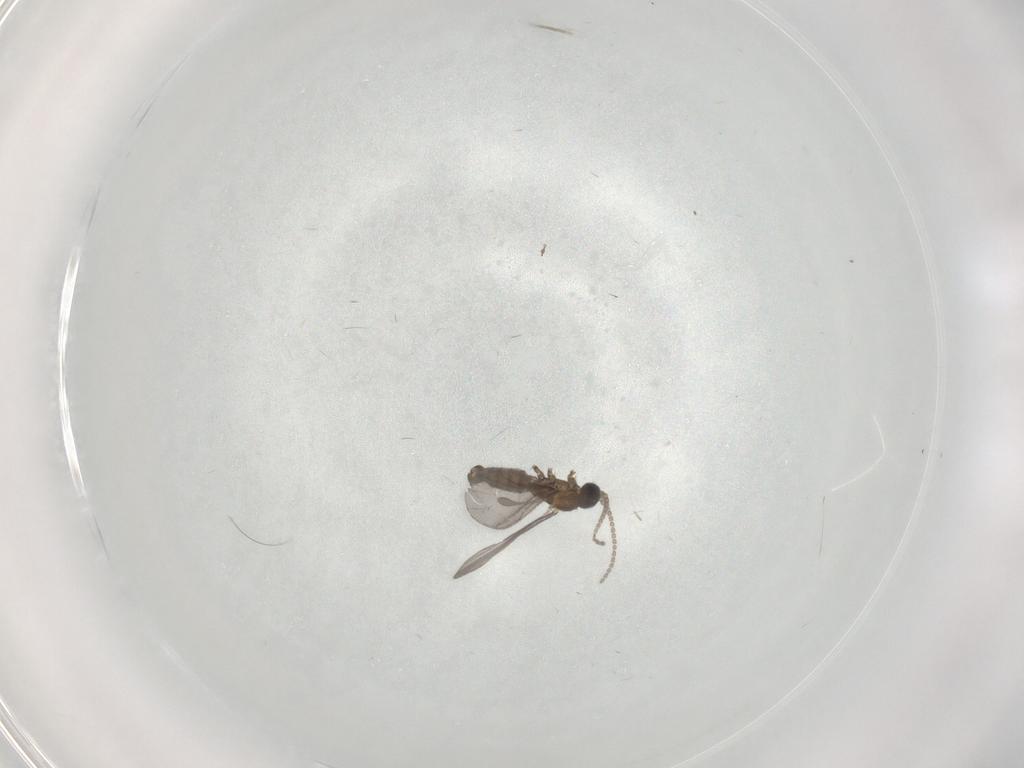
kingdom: Animalia
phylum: Arthropoda
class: Insecta
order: Diptera
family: Sciaridae
